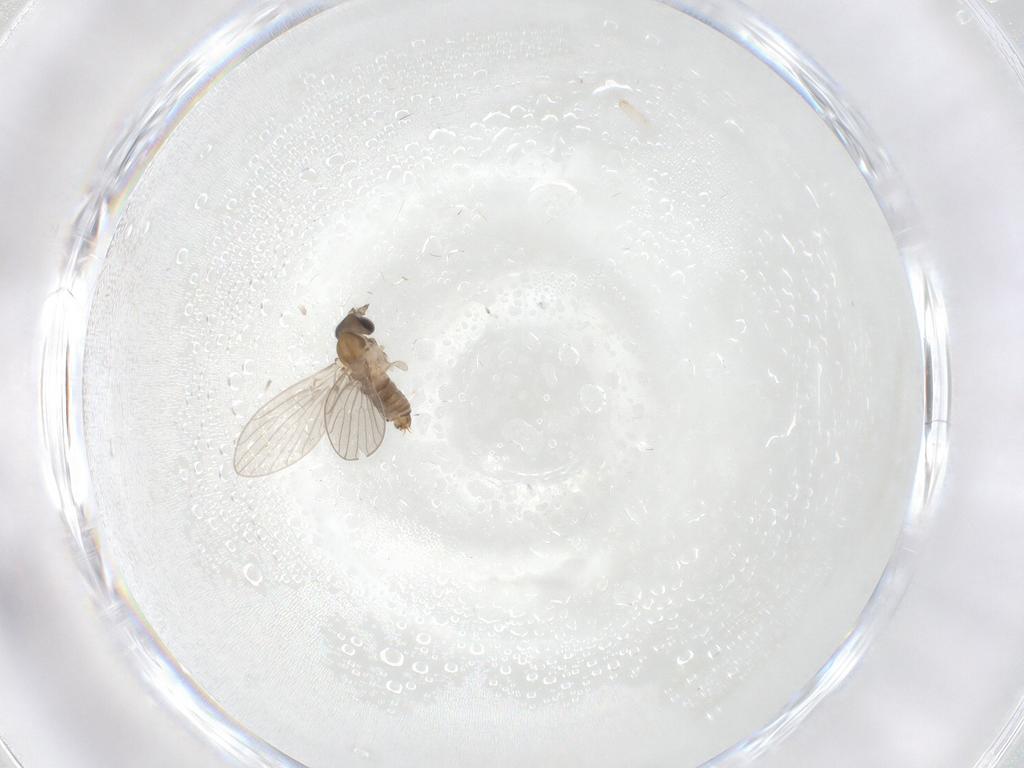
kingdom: Animalia
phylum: Arthropoda
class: Insecta
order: Diptera
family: Psychodidae
